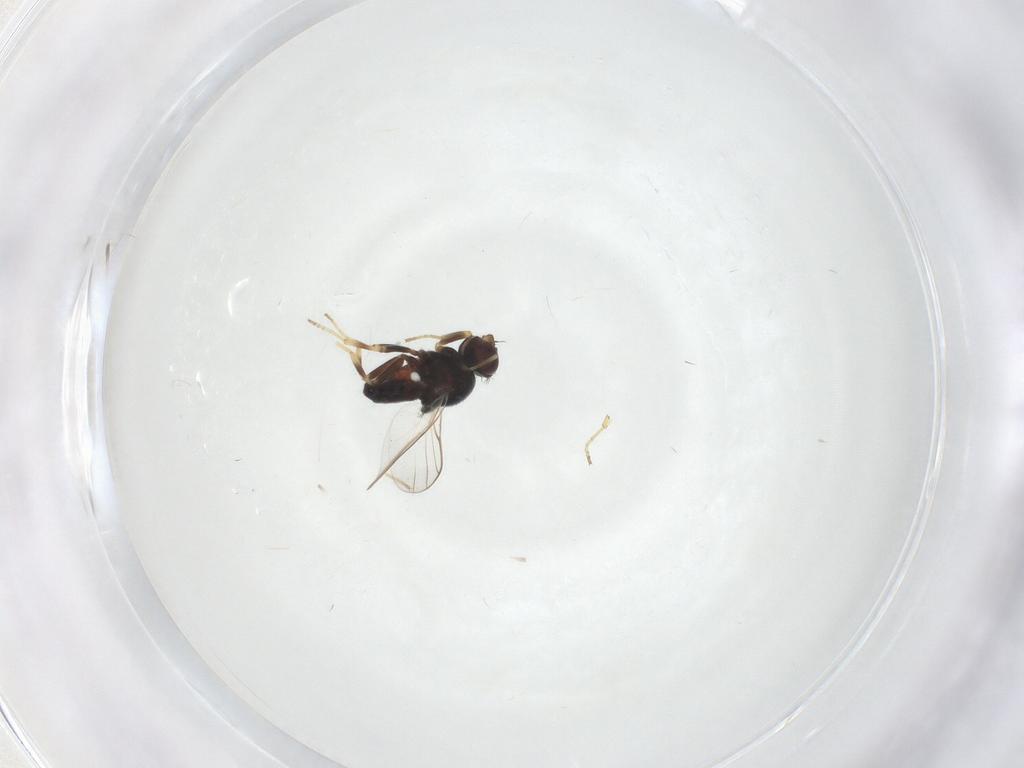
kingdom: Animalia
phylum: Arthropoda
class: Insecta
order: Diptera
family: Chloropidae
